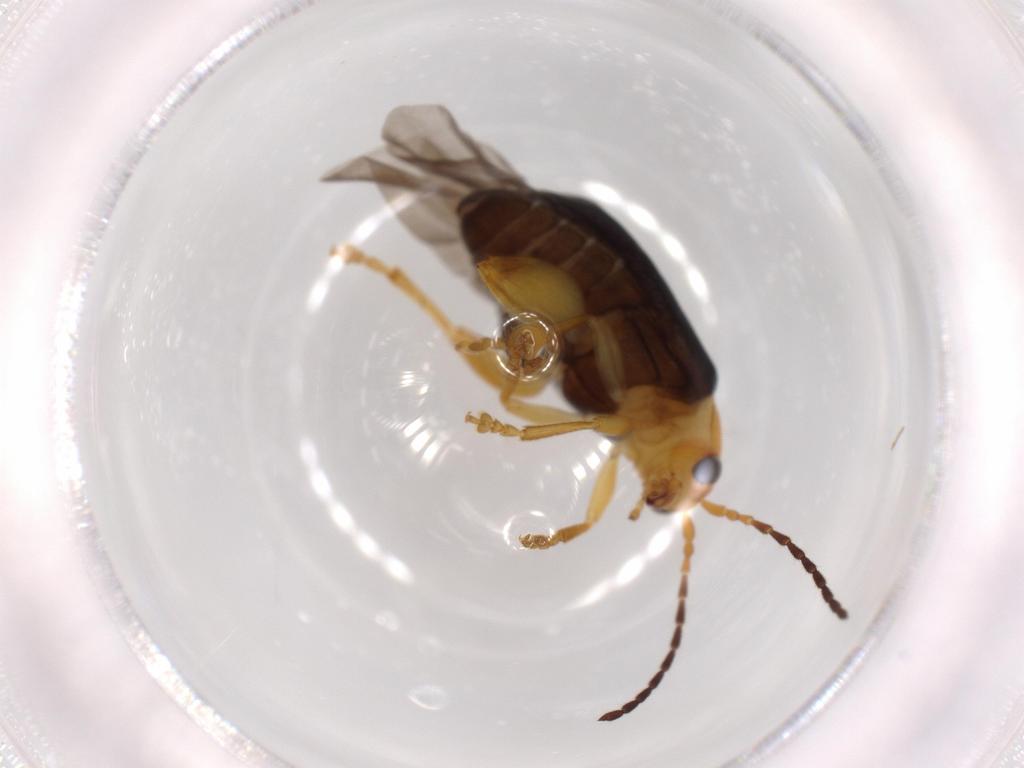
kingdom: Animalia
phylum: Arthropoda
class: Insecta
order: Coleoptera
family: Chrysomelidae
